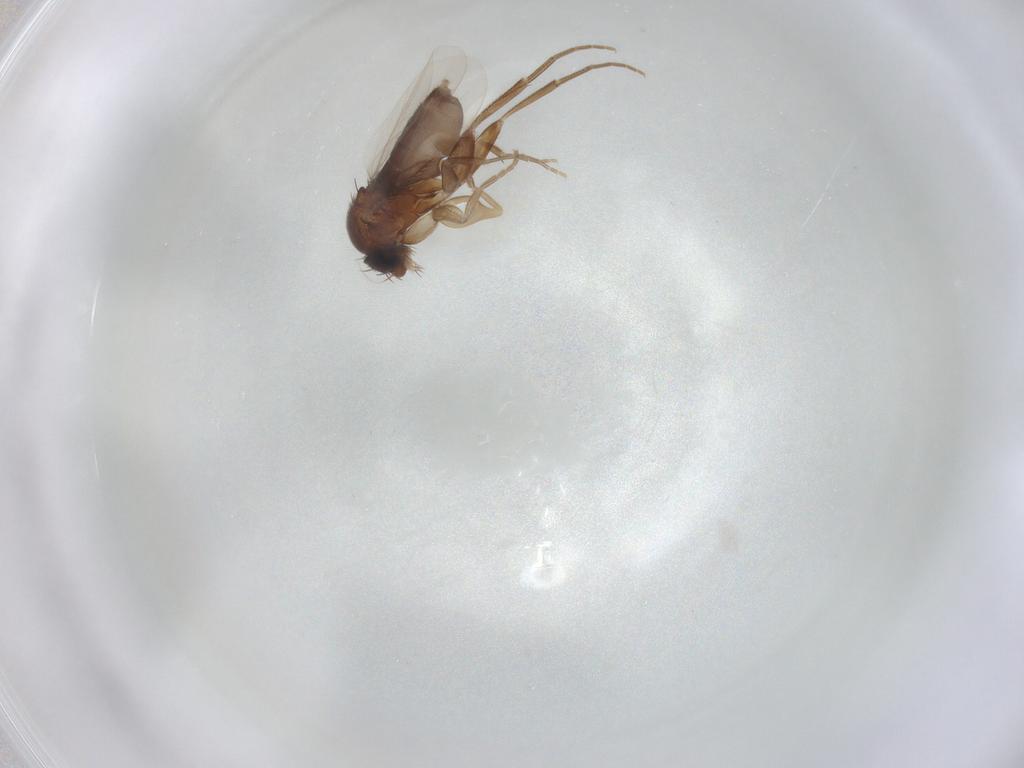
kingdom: Animalia
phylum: Arthropoda
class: Insecta
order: Diptera
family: Phoridae
